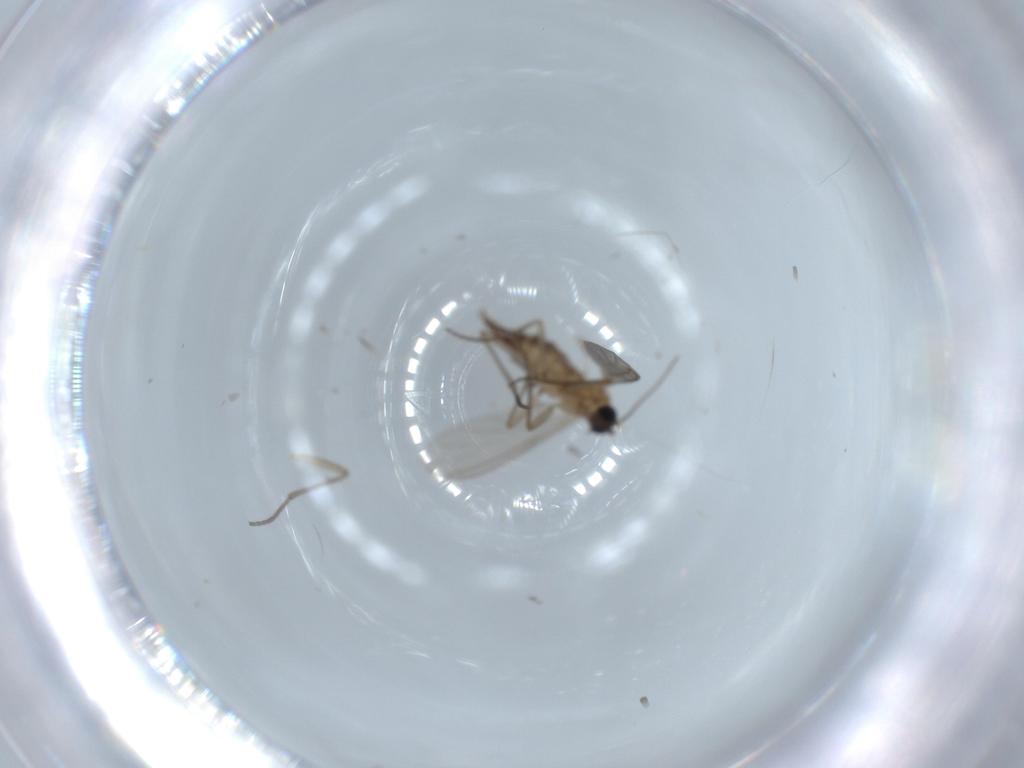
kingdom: Animalia
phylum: Arthropoda
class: Insecta
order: Diptera
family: Sciaridae
